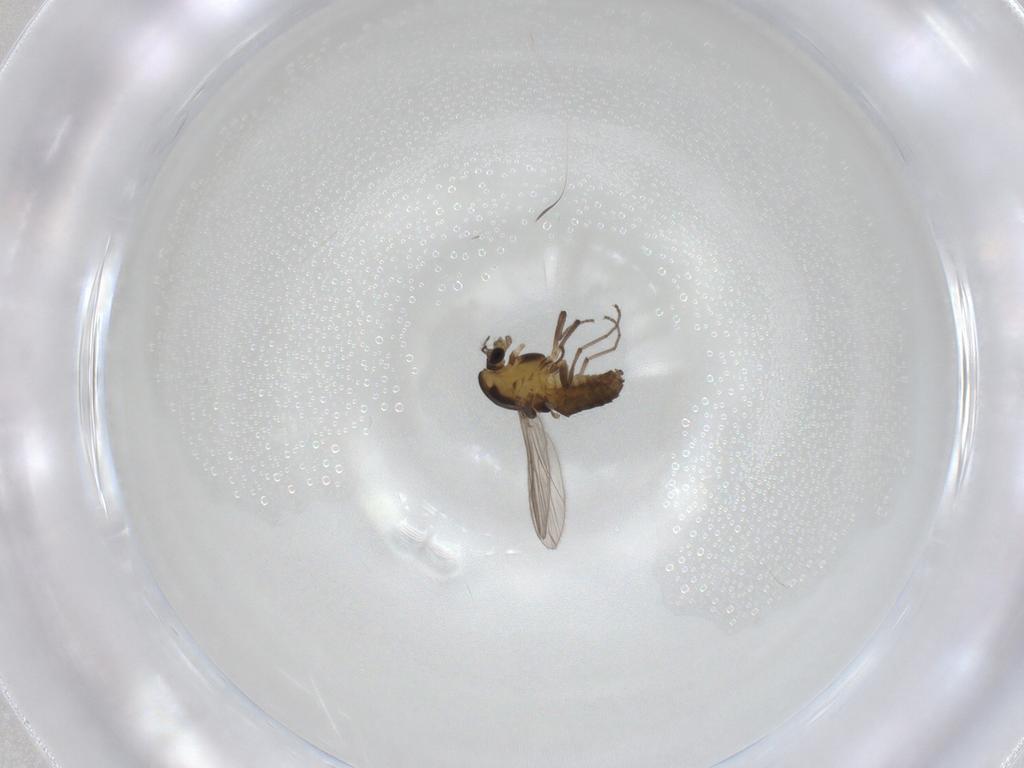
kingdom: Animalia
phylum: Arthropoda
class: Insecta
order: Diptera
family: Chironomidae
